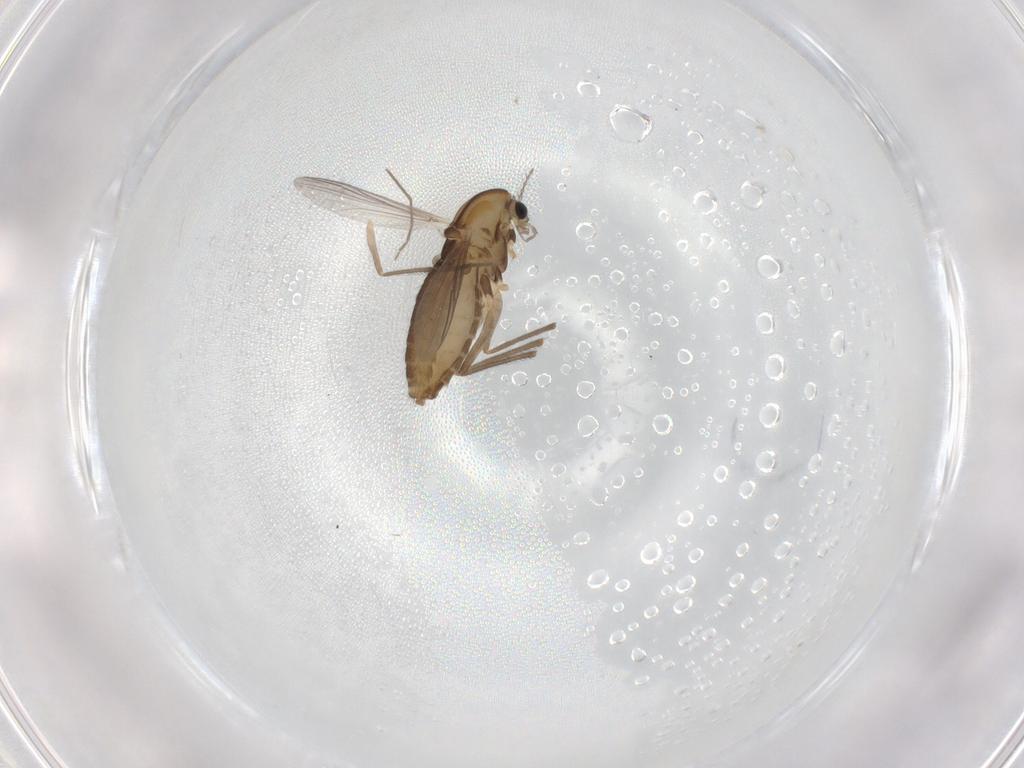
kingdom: Animalia
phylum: Arthropoda
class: Insecta
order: Diptera
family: Chironomidae
